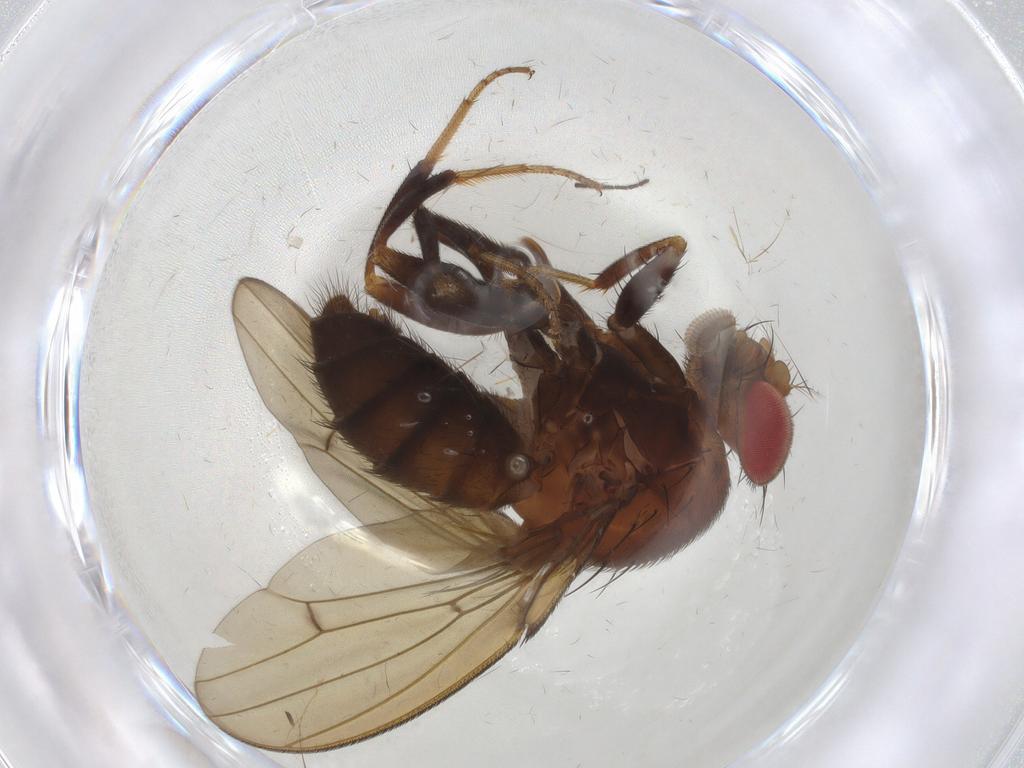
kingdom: Animalia
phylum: Arthropoda
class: Insecta
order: Diptera
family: Drosophilidae
